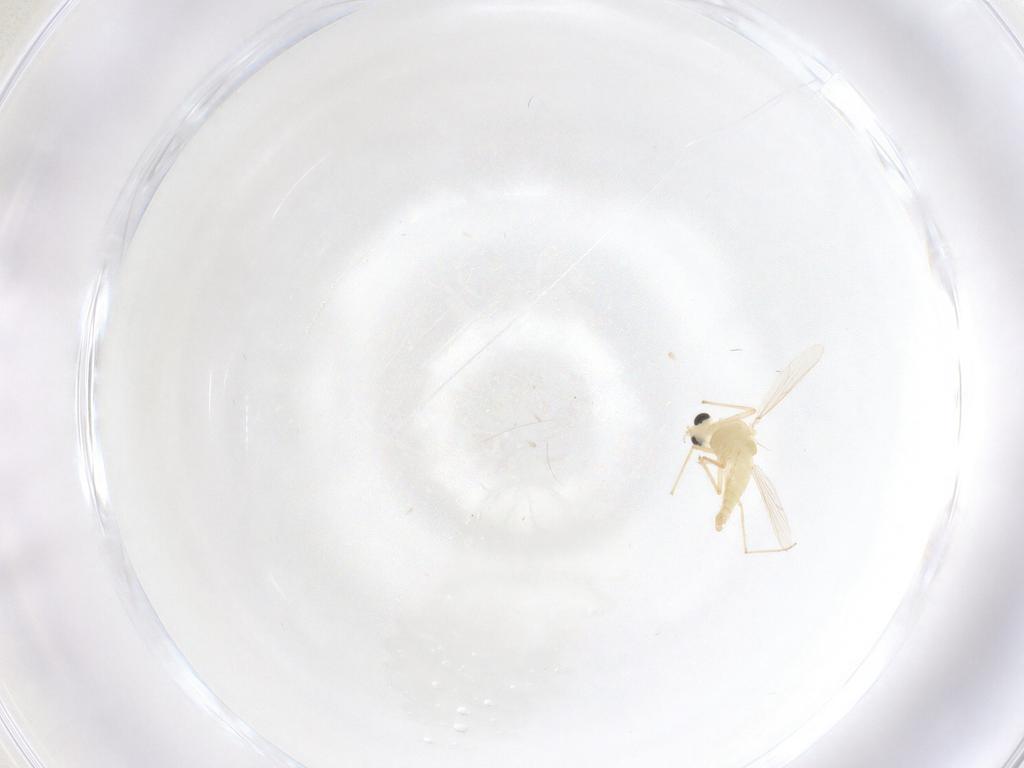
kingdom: Animalia
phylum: Arthropoda
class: Insecta
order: Diptera
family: Chironomidae
